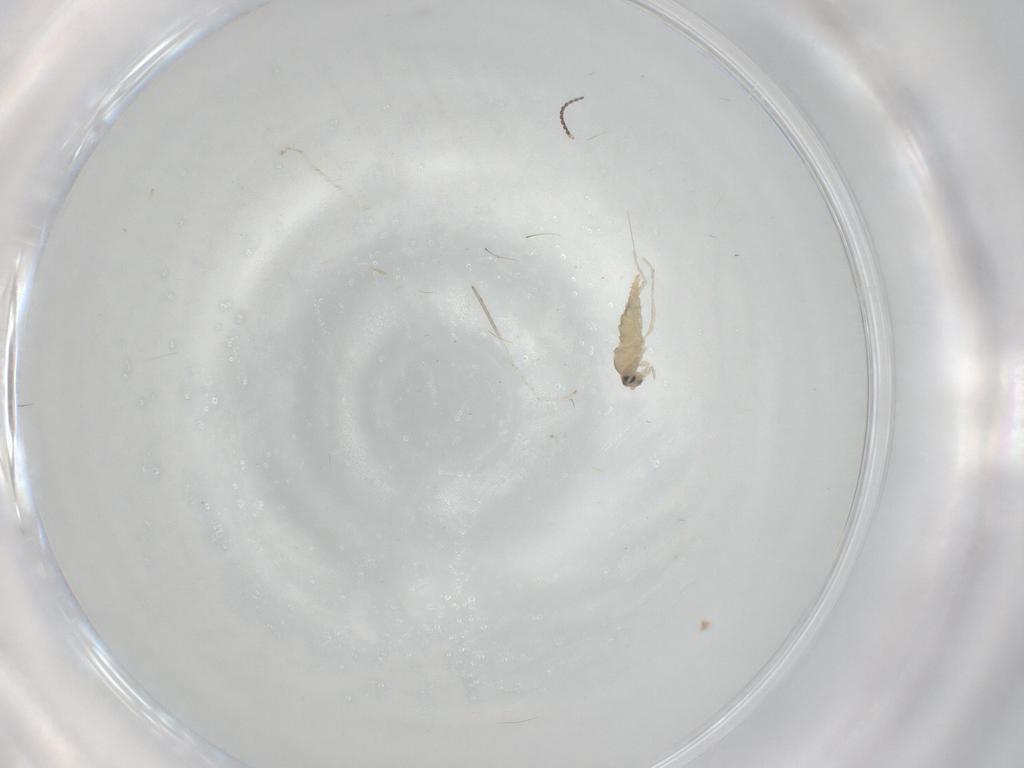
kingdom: Animalia
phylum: Arthropoda
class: Insecta
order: Diptera
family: Cecidomyiidae
